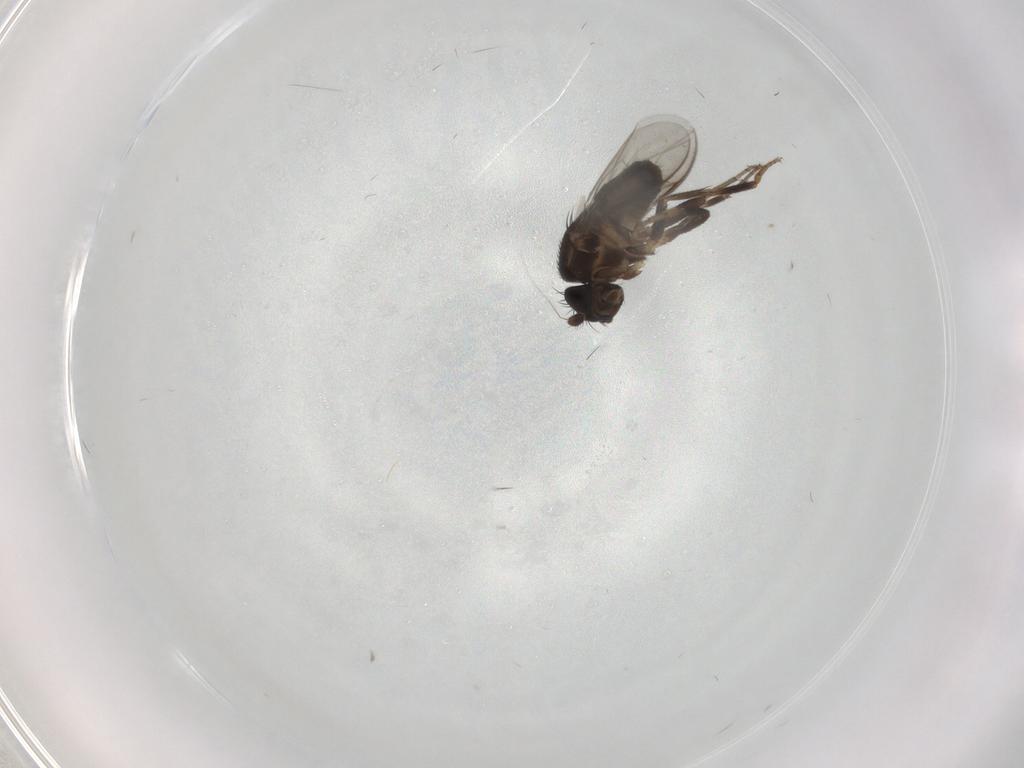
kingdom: Animalia
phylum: Arthropoda
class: Insecta
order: Diptera
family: Sphaeroceridae
